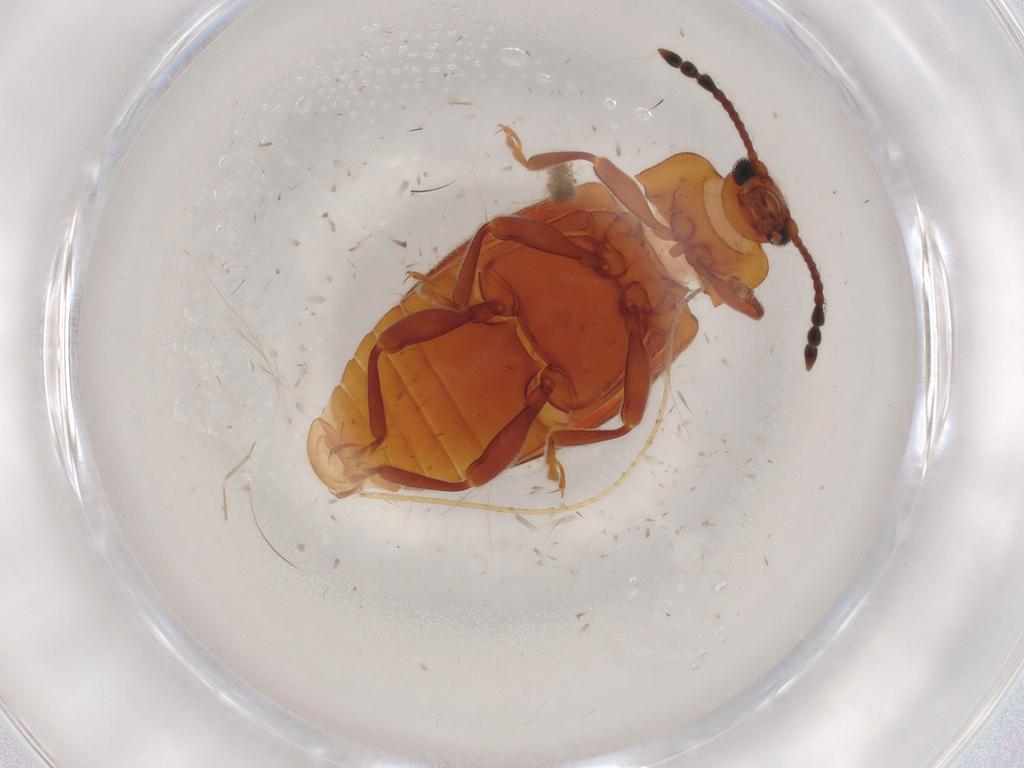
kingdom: Animalia
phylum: Arthropoda
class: Insecta
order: Coleoptera
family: Endomychidae
